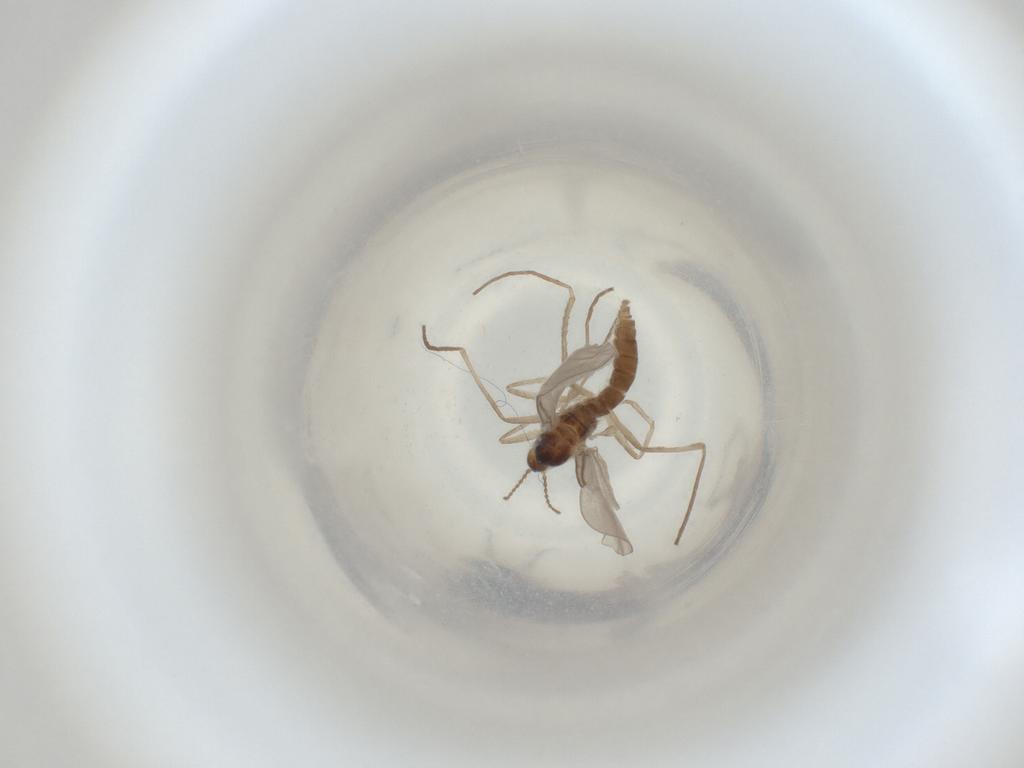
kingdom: Animalia
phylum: Arthropoda
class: Insecta
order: Diptera
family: Cecidomyiidae
